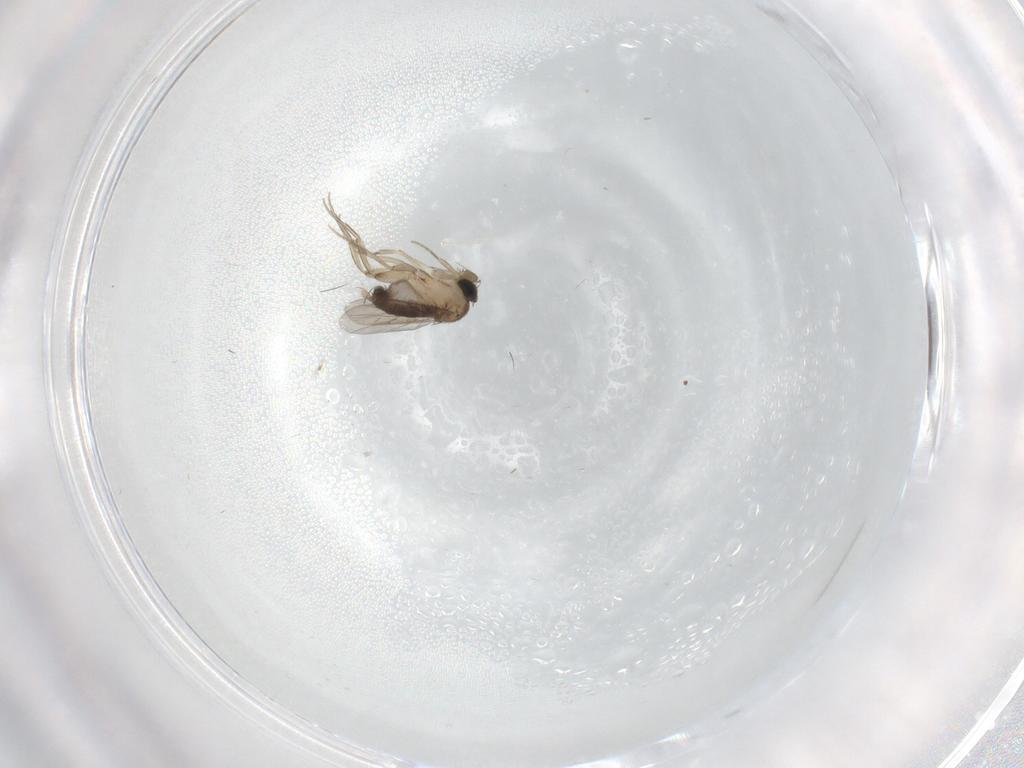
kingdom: Animalia
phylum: Arthropoda
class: Insecta
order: Diptera
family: Phoridae
